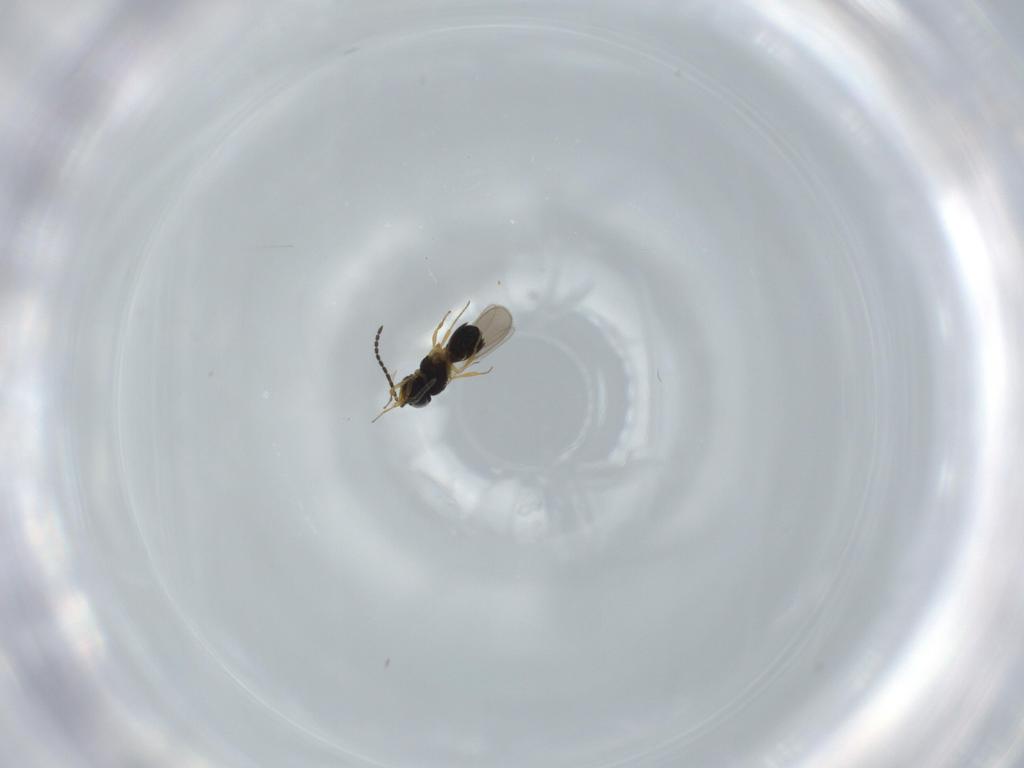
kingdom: Animalia
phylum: Arthropoda
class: Insecta
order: Hymenoptera
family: Scelionidae
